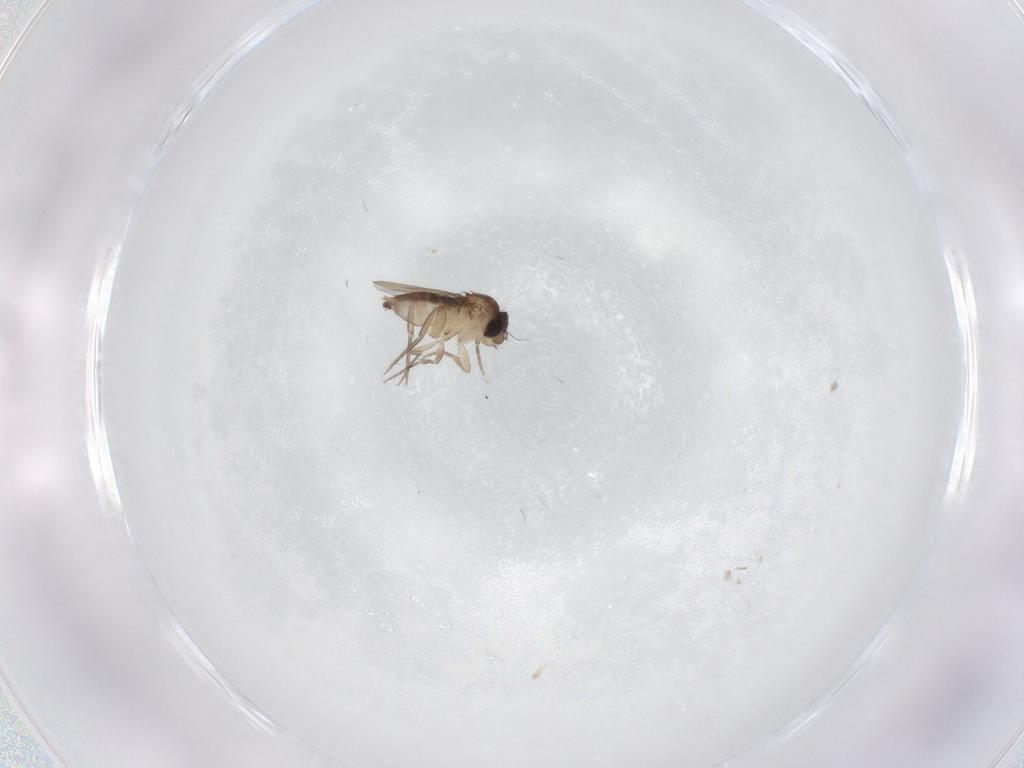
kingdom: Animalia
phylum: Arthropoda
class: Insecta
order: Diptera
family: Phoridae
